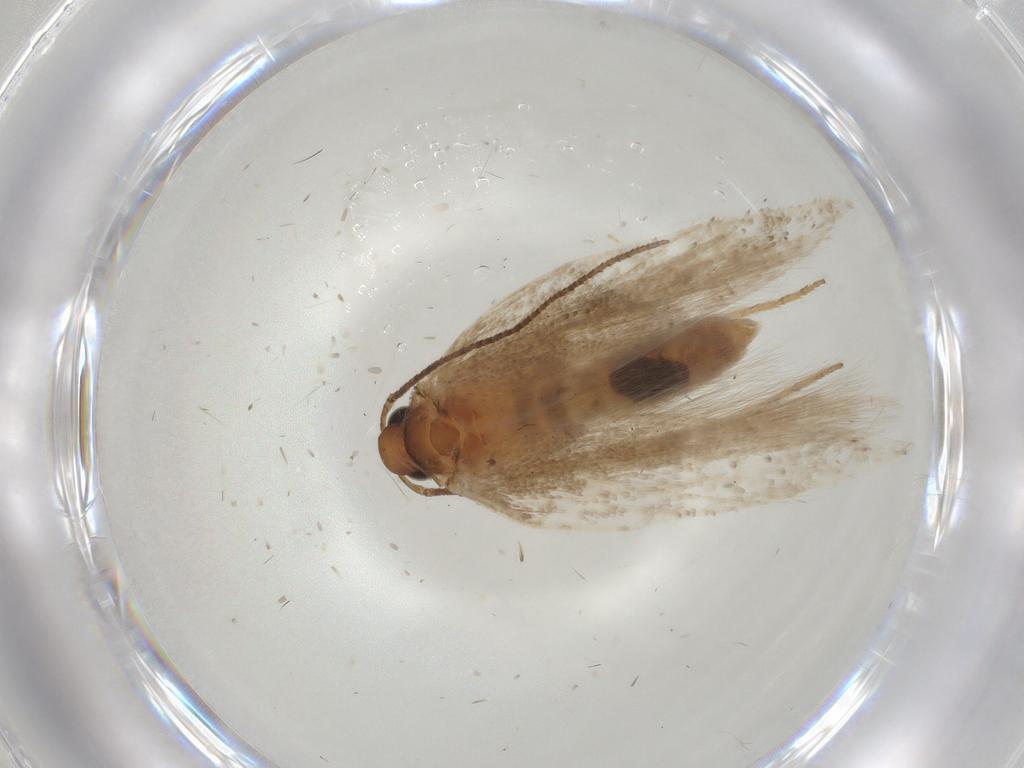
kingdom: Animalia
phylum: Arthropoda
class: Insecta
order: Lepidoptera
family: Gelechiidae
